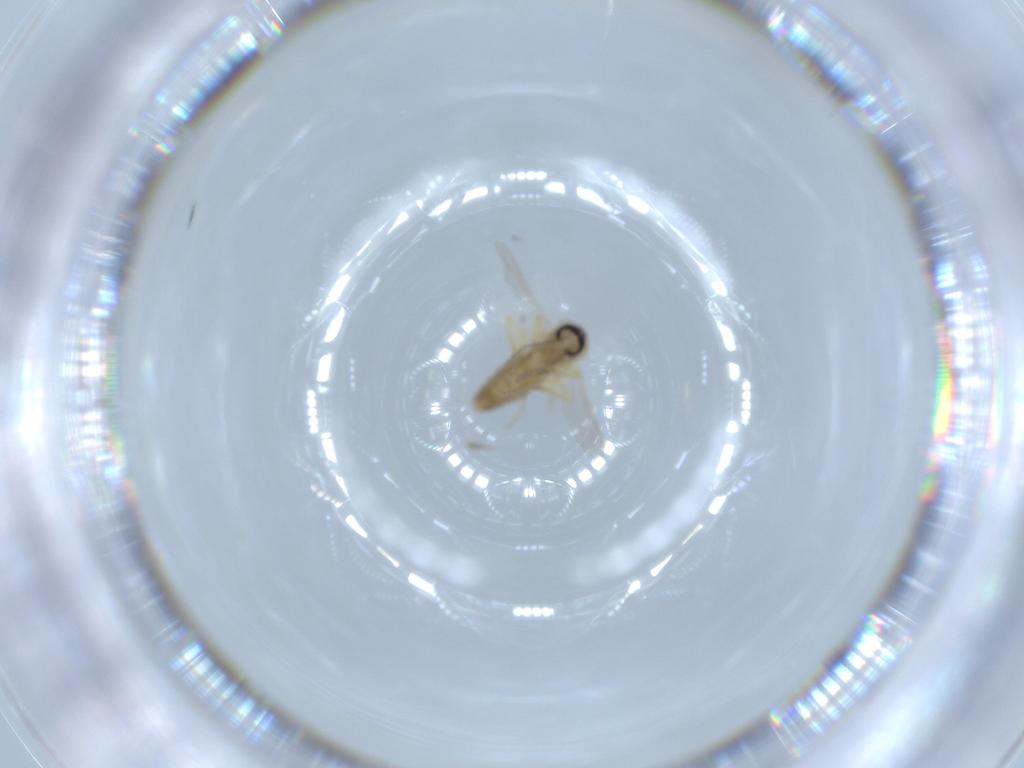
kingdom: Animalia
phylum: Arthropoda
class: Insecta
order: Diptera
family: Ceratopogonidae
